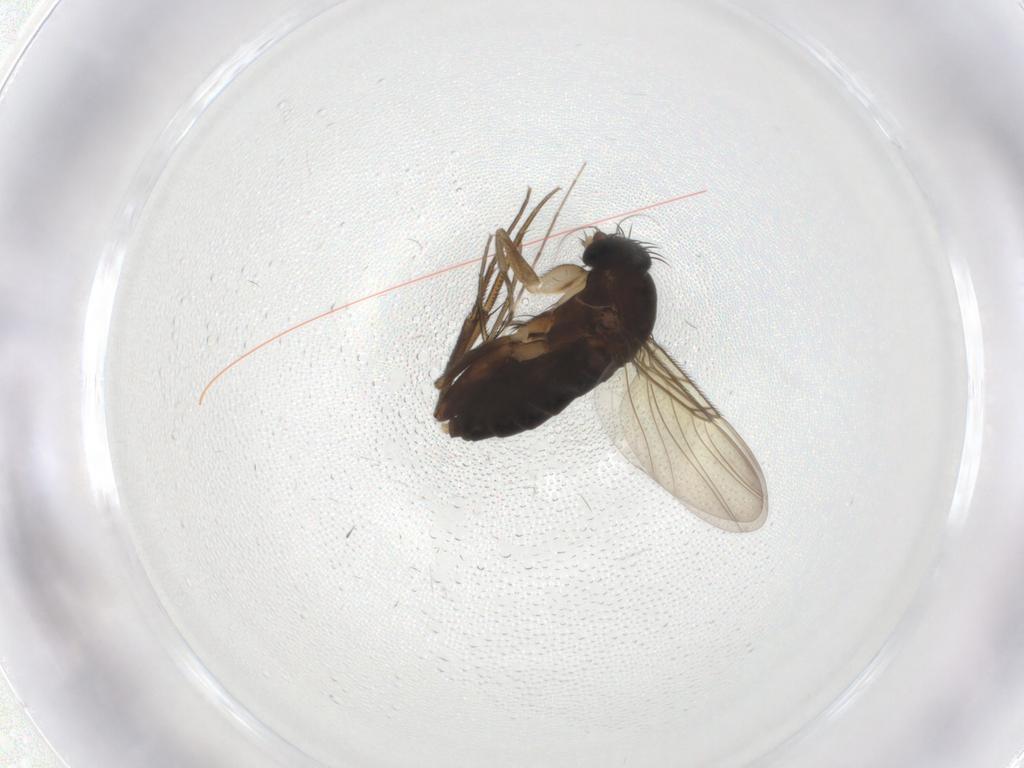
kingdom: Animalia
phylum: Arthropoda
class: Insecta
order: Diptera
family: Phoridae
